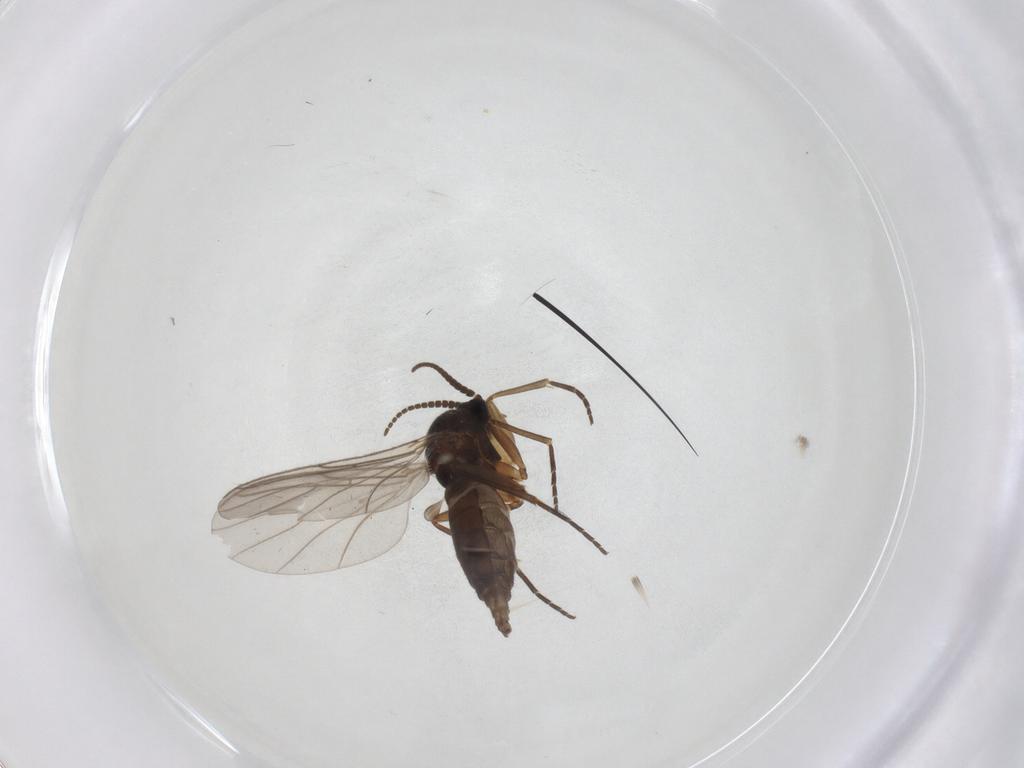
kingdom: Animalia
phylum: Arthropoda
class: Insecta
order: Diptera
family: Sciaridae
